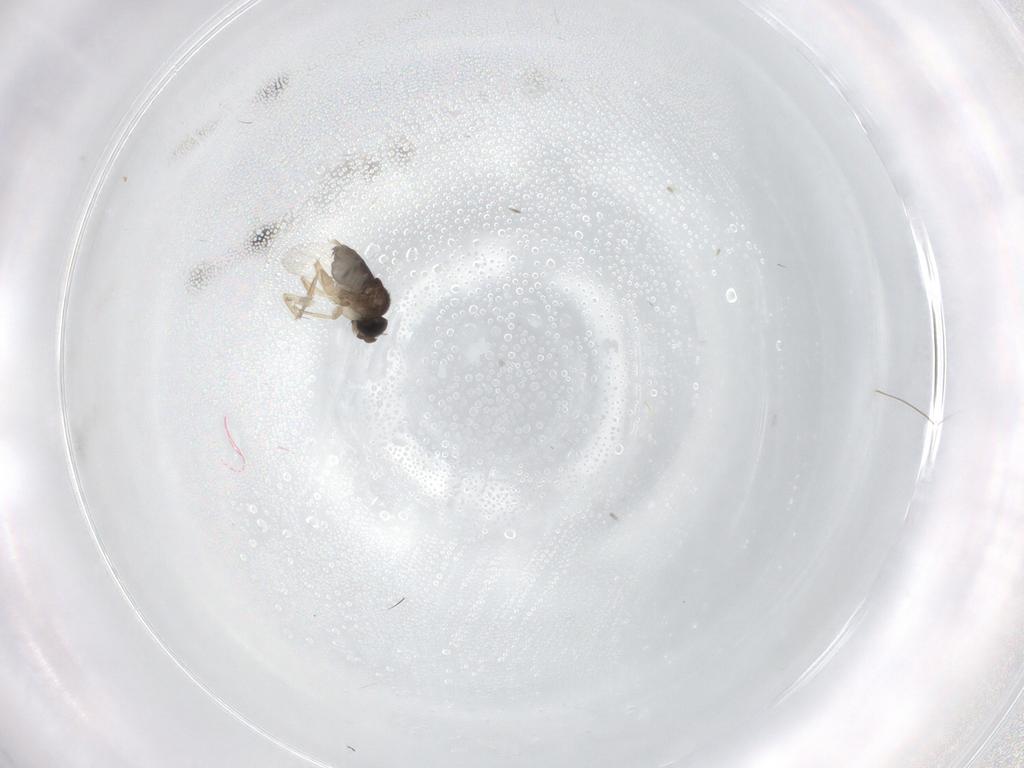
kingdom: Animalia
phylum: Arthropoda
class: Insecta
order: Diptera
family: Phoridae
